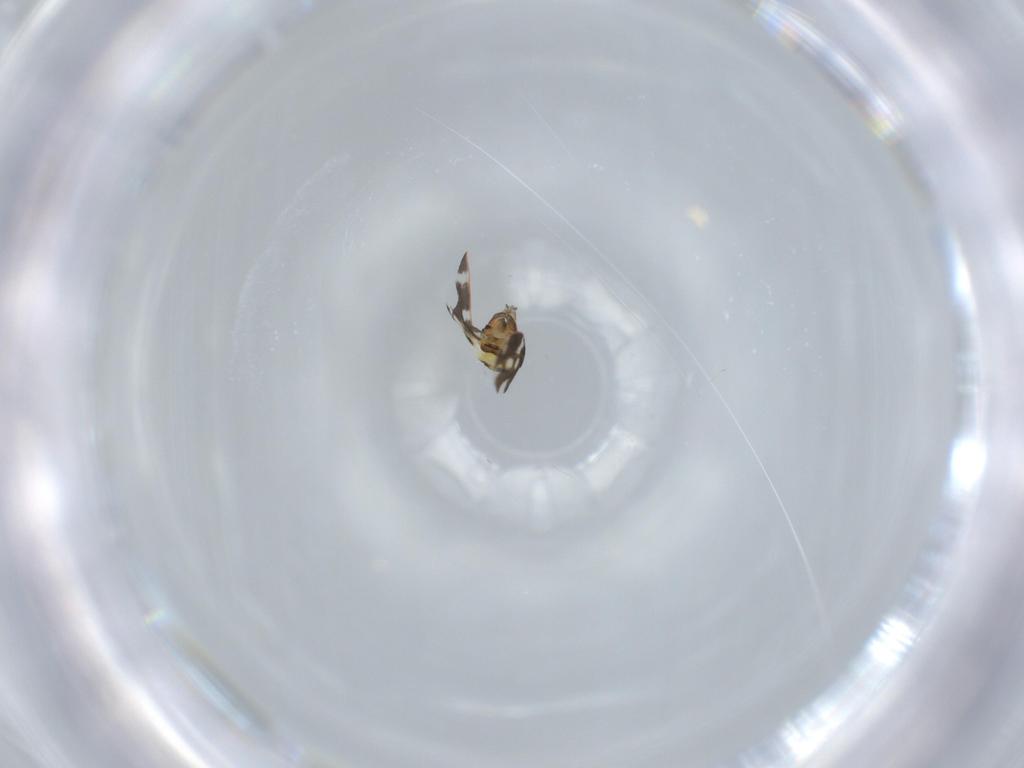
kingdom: Animalia
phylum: Arthropoda
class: Insecta
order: Hemiptera
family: Aleyrodidae
